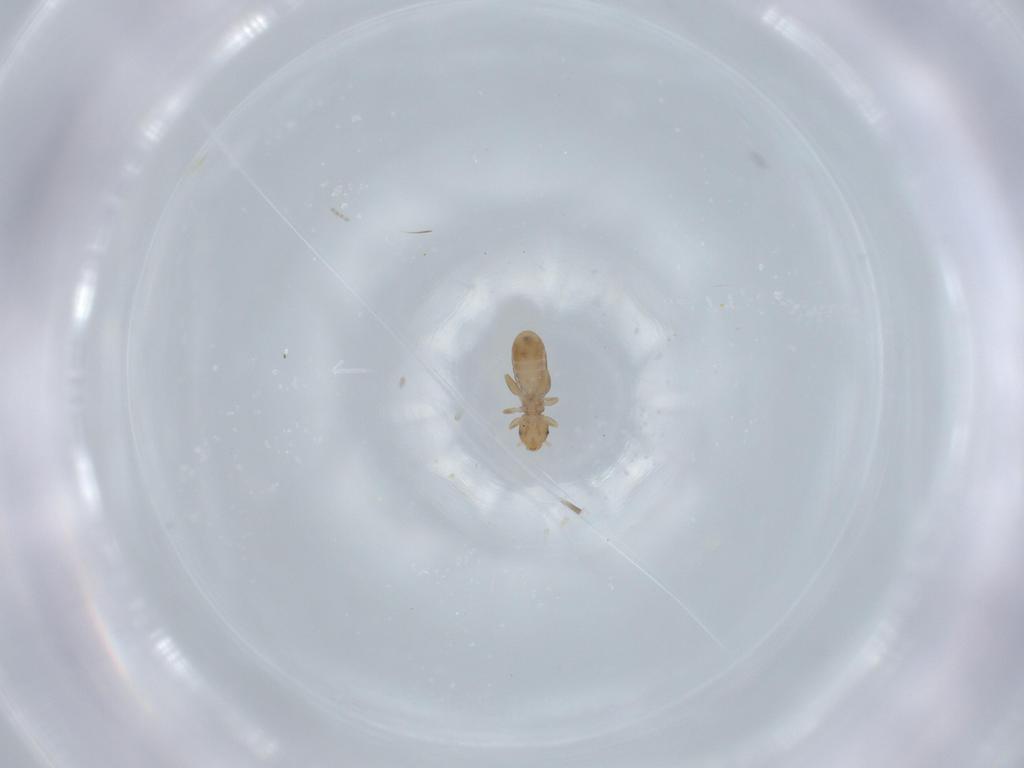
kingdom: Animalia
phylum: Arthropoda
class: Insecta
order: Psocodea
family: Liposcelididae
